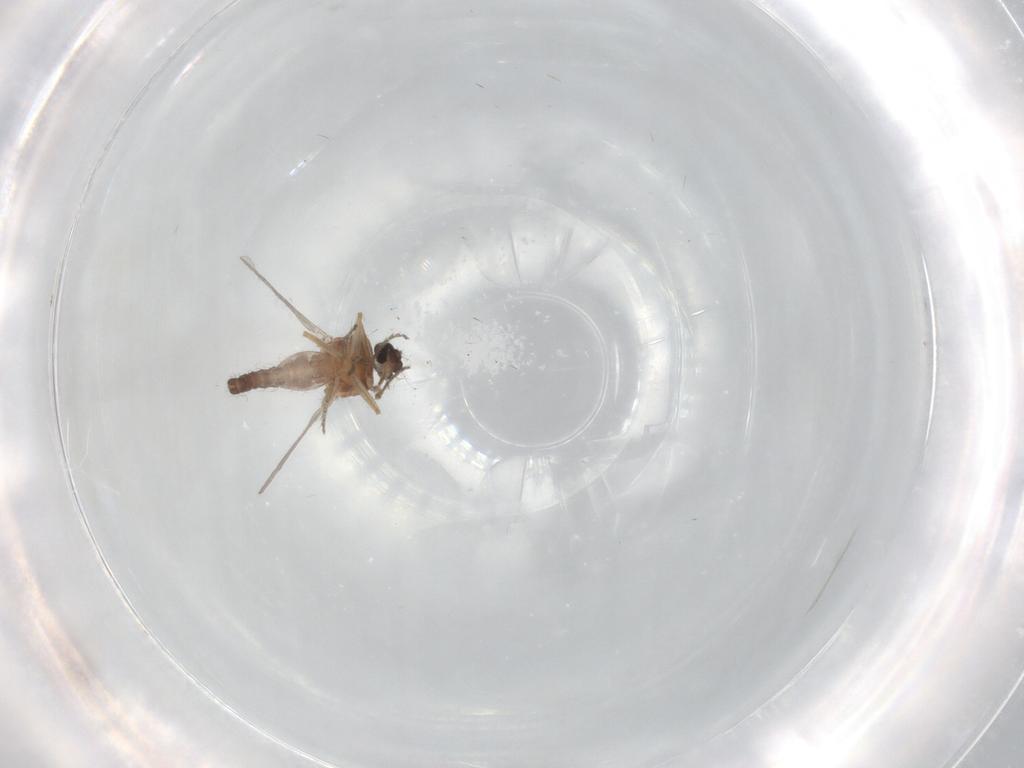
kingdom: Animalia
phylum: Arthropoda
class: Insecta
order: Diptera
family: Ceratopogonidae
